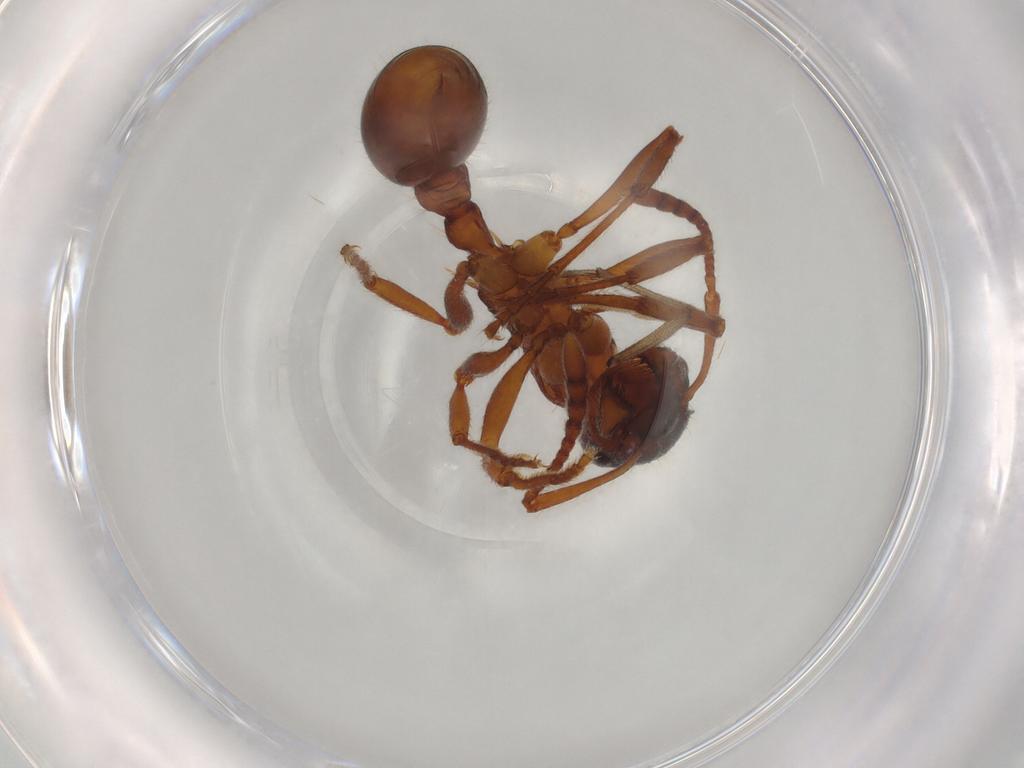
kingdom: Animalia
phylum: Arthropoda
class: Insecta
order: Hymenoptera
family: Formicidae
